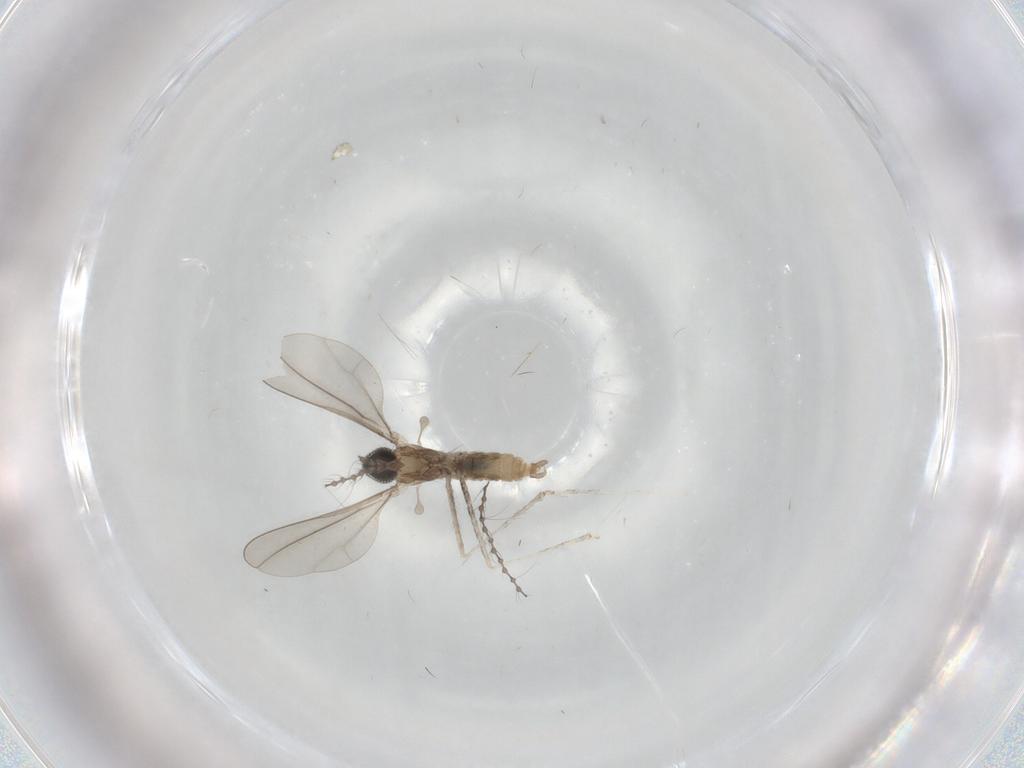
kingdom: Animalia
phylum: Arthropoda
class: Insecta
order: Diptera
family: Cecidomyiidae
